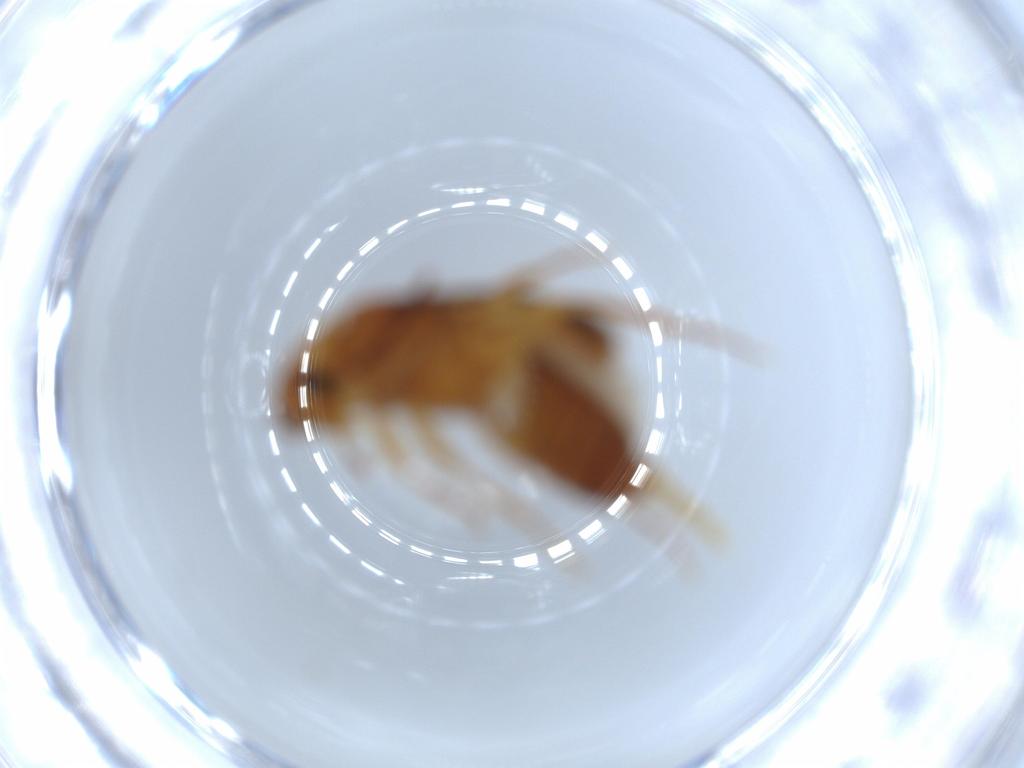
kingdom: Animalia
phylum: Arthropoda
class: Insecta
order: Coleoptera
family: Scraptiidae
